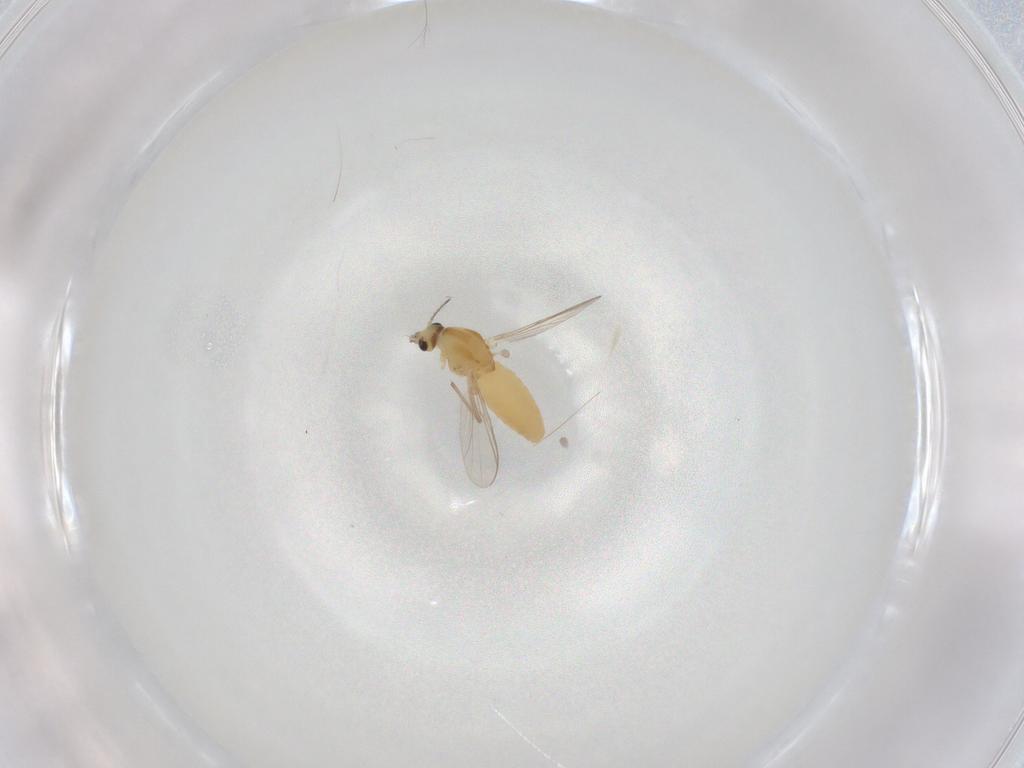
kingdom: Animalia
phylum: Arthropoda
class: Insecta
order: Diptera
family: Chironomidae
